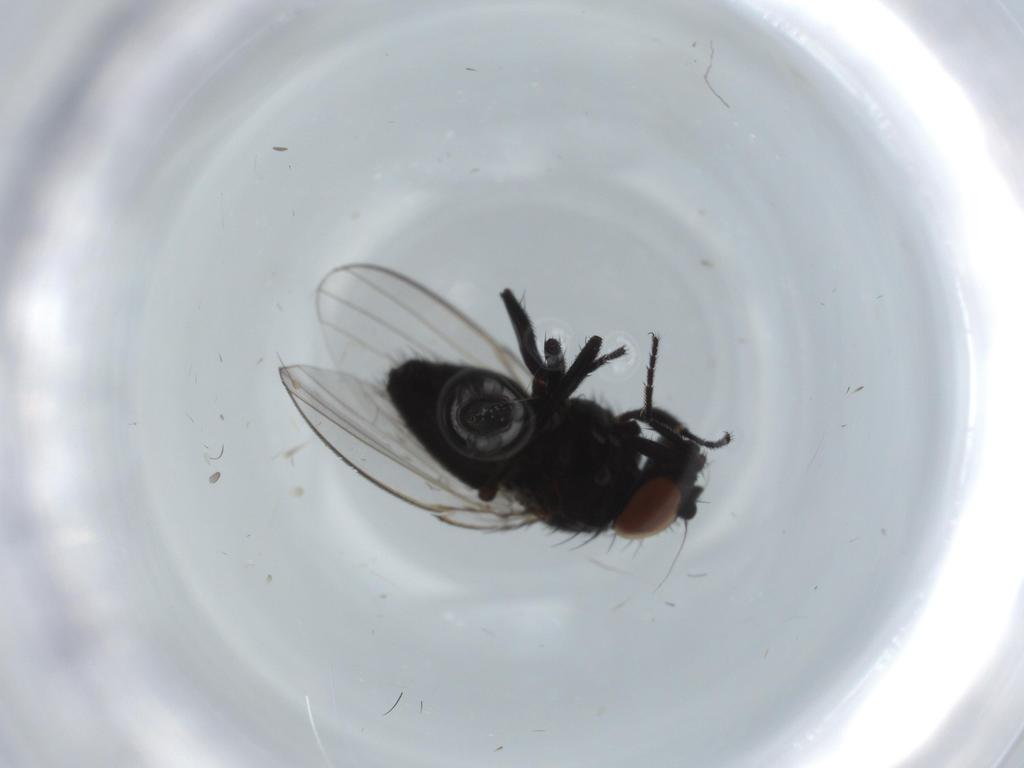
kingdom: Animalia
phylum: Arthropoda
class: Insecta
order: Diptera
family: Milichiidae
